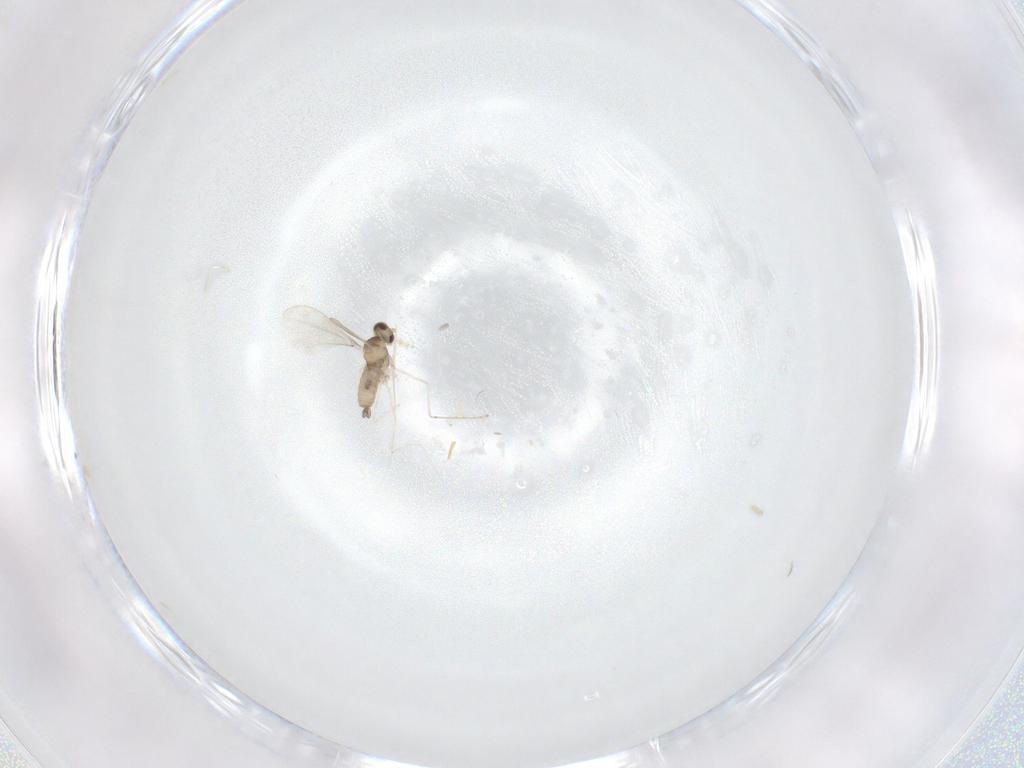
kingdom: Animalia
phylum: Arthropoda
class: Insecta
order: Diptera
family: Cecidomyiidae
